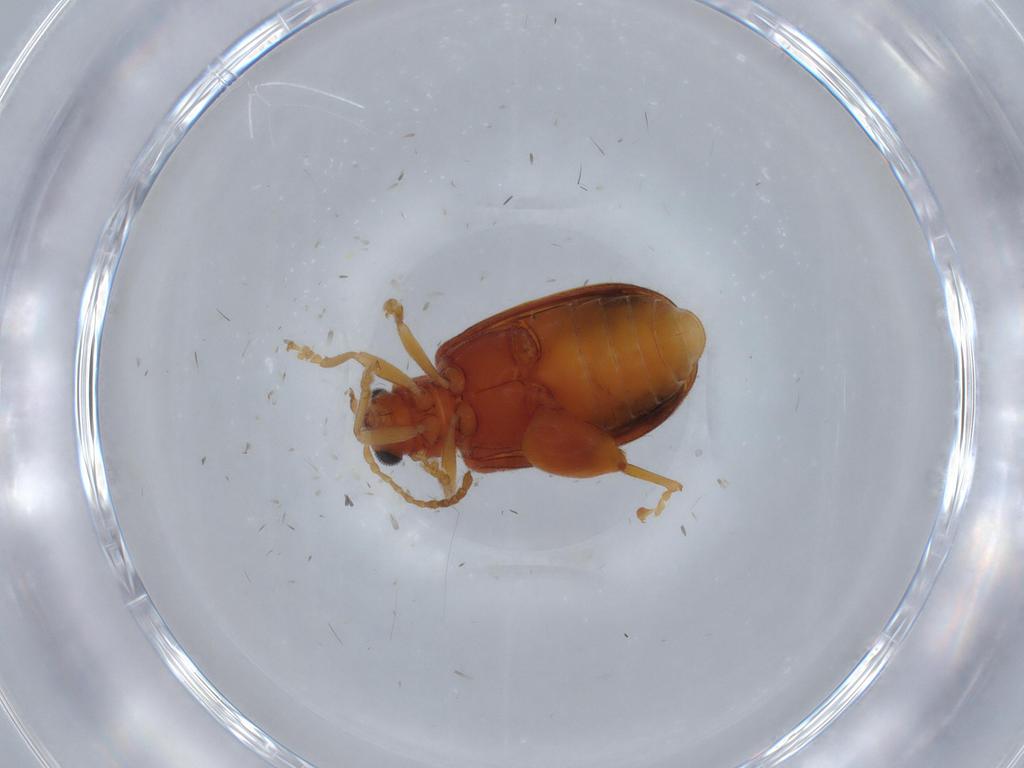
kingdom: Animalia
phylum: Arthropoda
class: Insecta
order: Coleoptera
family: Chrysomelidae
